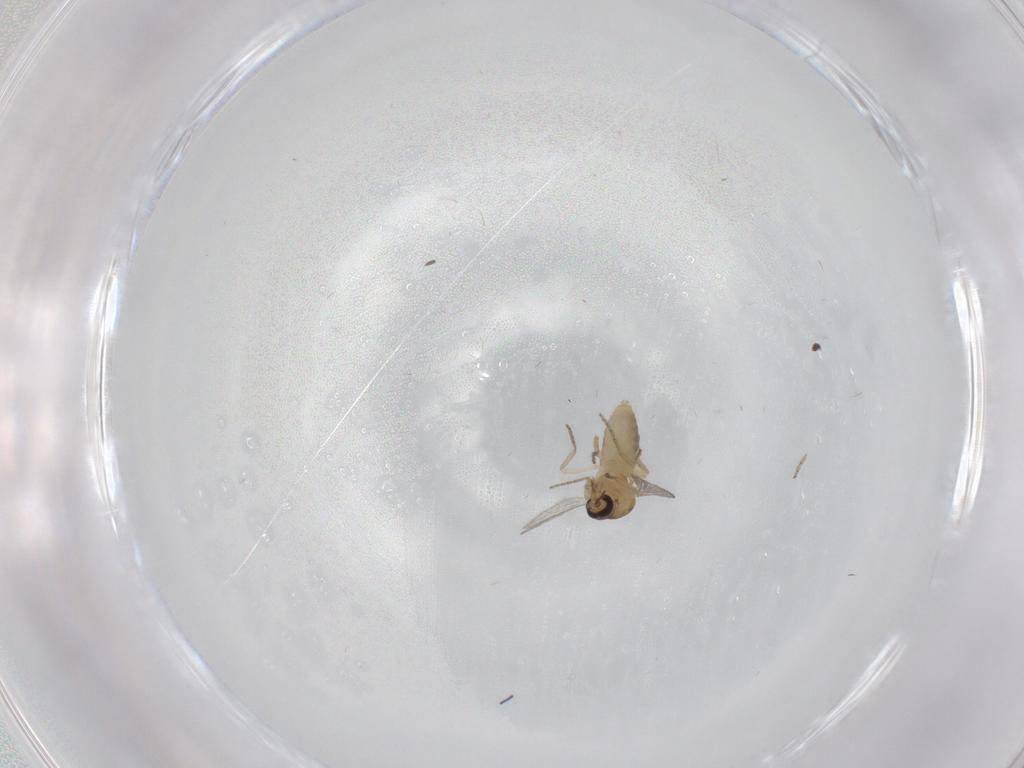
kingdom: Animalia
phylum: Arthropoda
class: Insecta
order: Diptera
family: Ceratopogonidae
